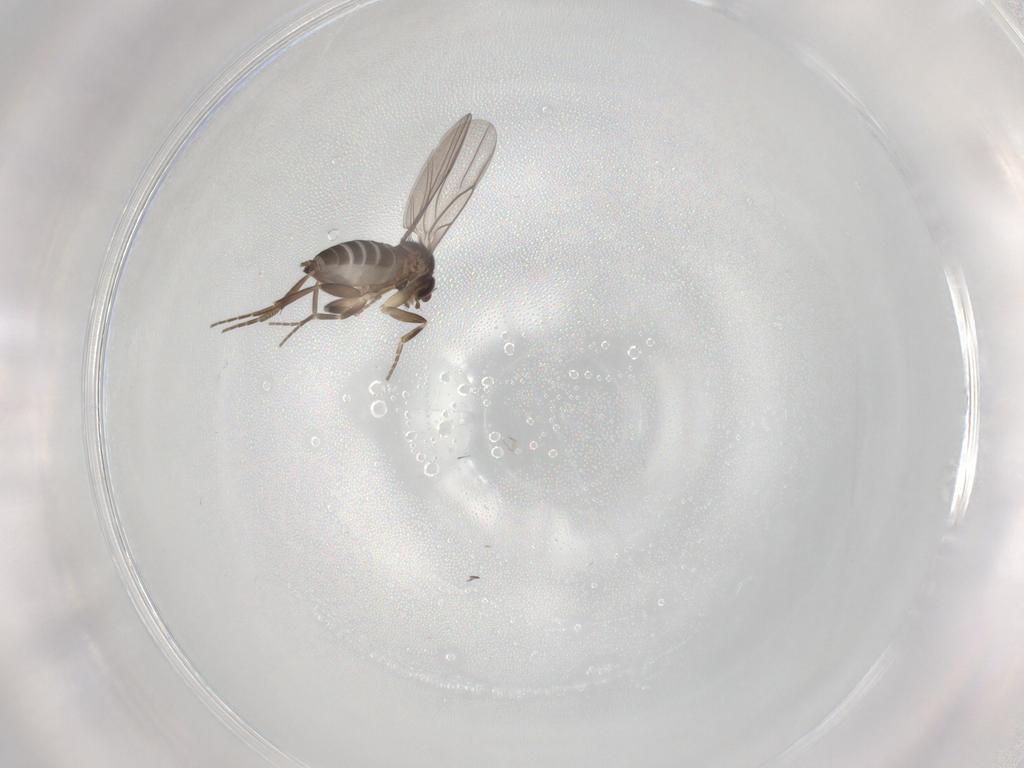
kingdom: Animalia
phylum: Arthropoda
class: Insecta
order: Diptera
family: Phoridae
